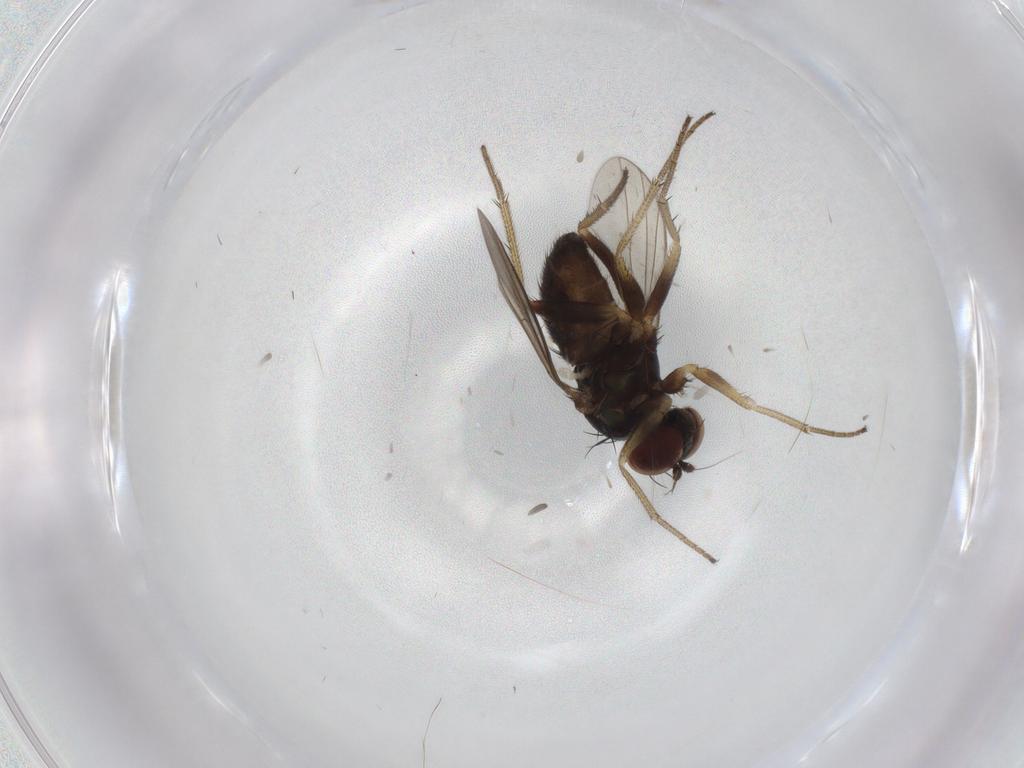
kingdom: Animalia
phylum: Arthropoda
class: Insecta
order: Diptera
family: Dolichopodidae
